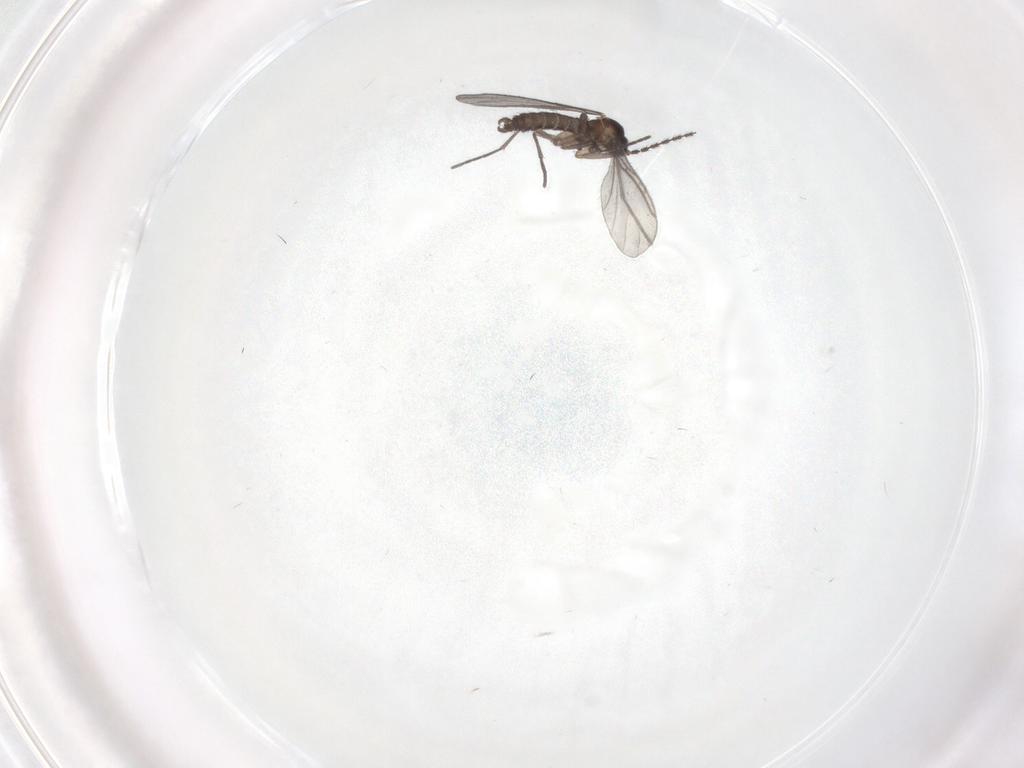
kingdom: Animalia
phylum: Arthropoda
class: Insecta
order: Diptera
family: Sciaridae
